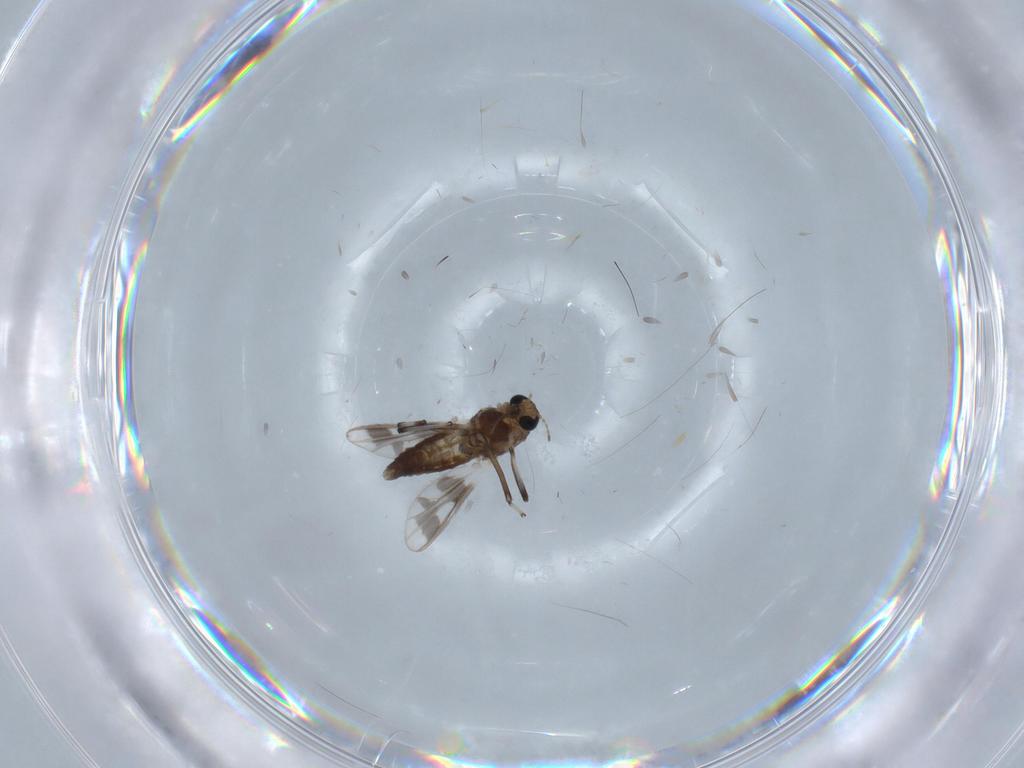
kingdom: Animalia
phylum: Arthropoda
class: Insecta
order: Diptera
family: Chironomidae
